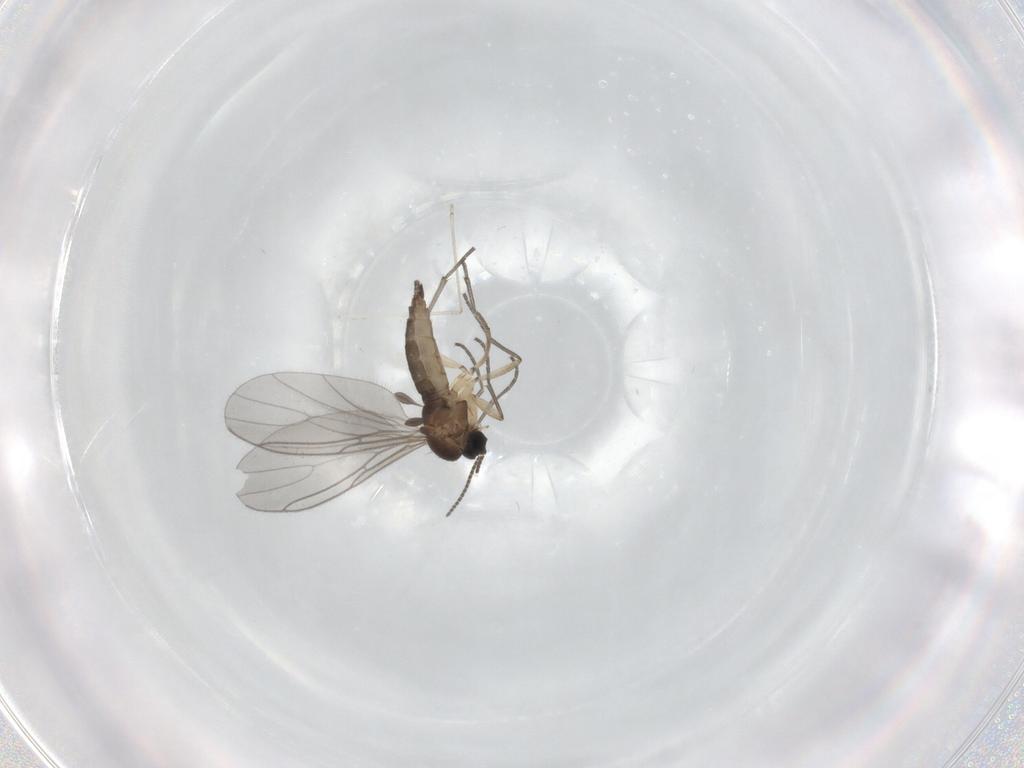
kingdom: Animalia
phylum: Arthropoda
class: Insecta
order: Diptera
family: Sciaridae
